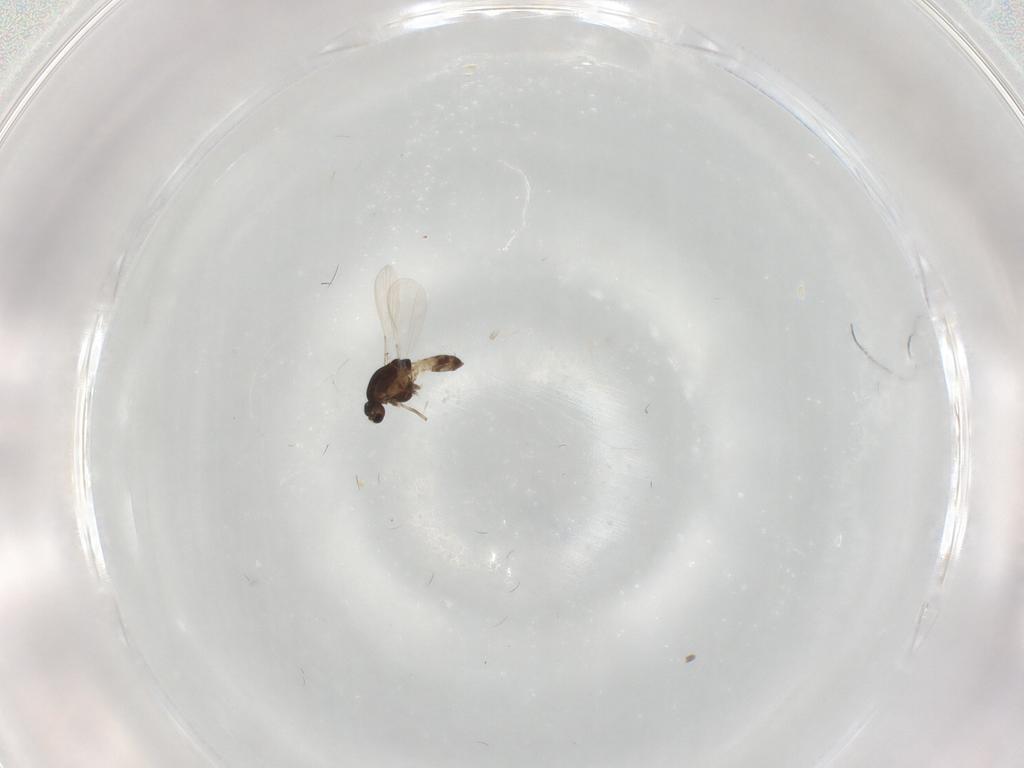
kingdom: Animalia
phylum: Arthropoda
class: Insecta
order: Diptera
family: Chironomidae
